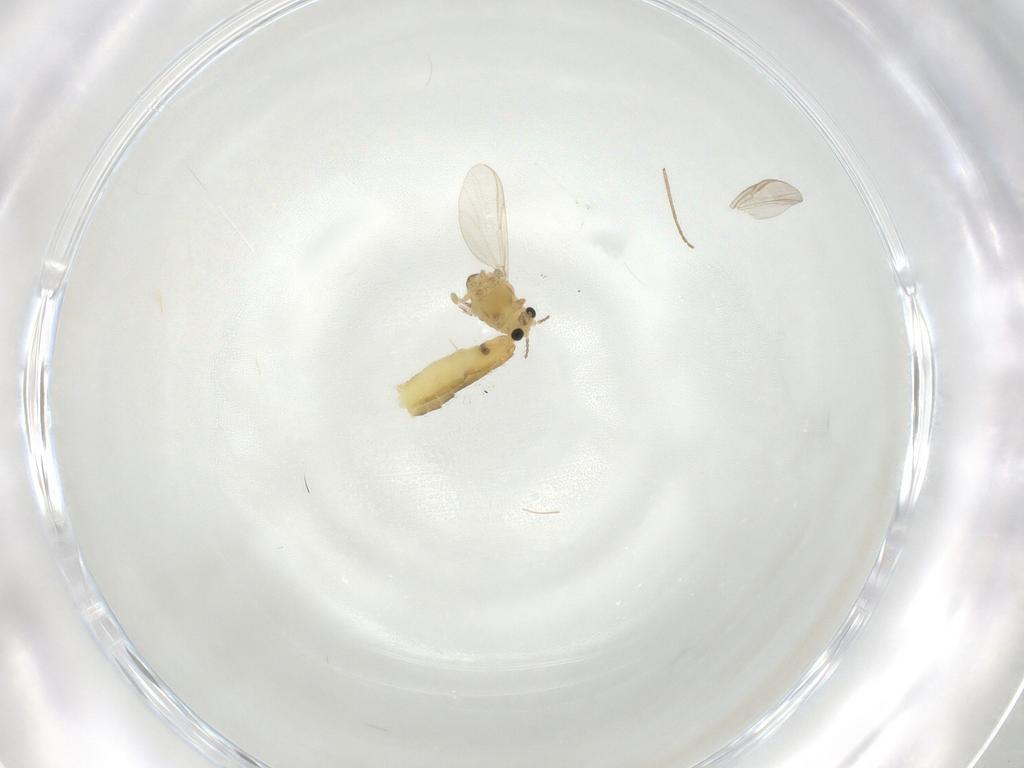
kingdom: Animalia
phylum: Arthropoda
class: Insecta
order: Diptera
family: Chironomidae
